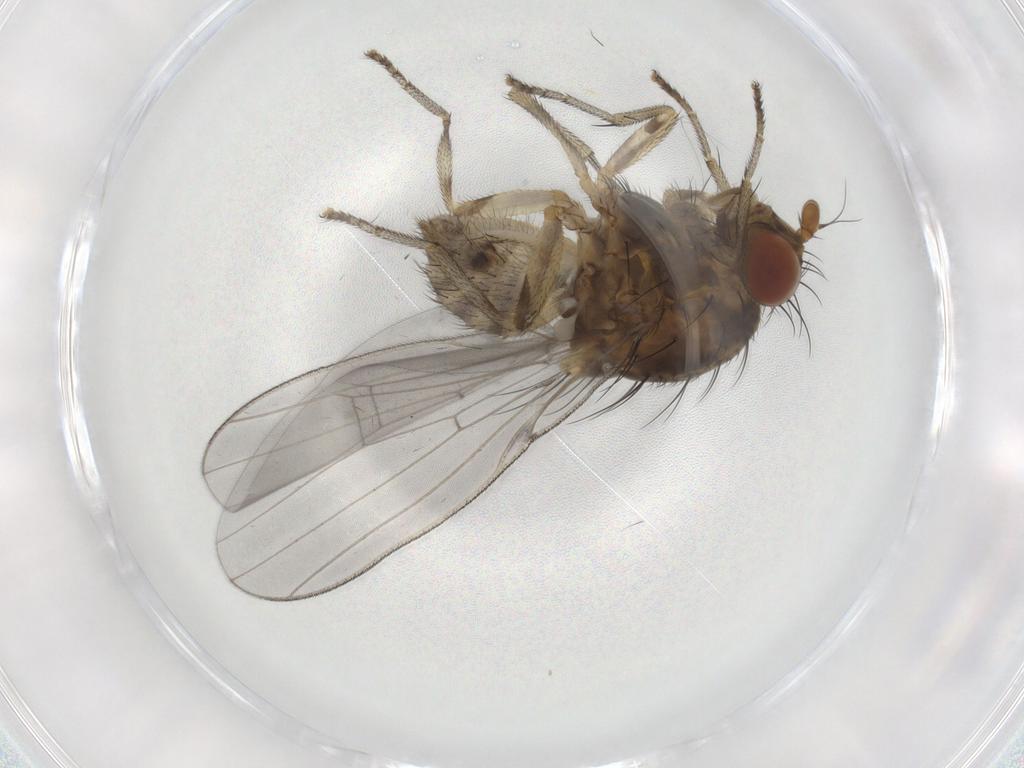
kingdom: Animalia
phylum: Arthropoda
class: Insecta
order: Diptera
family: Lauxaniidae
